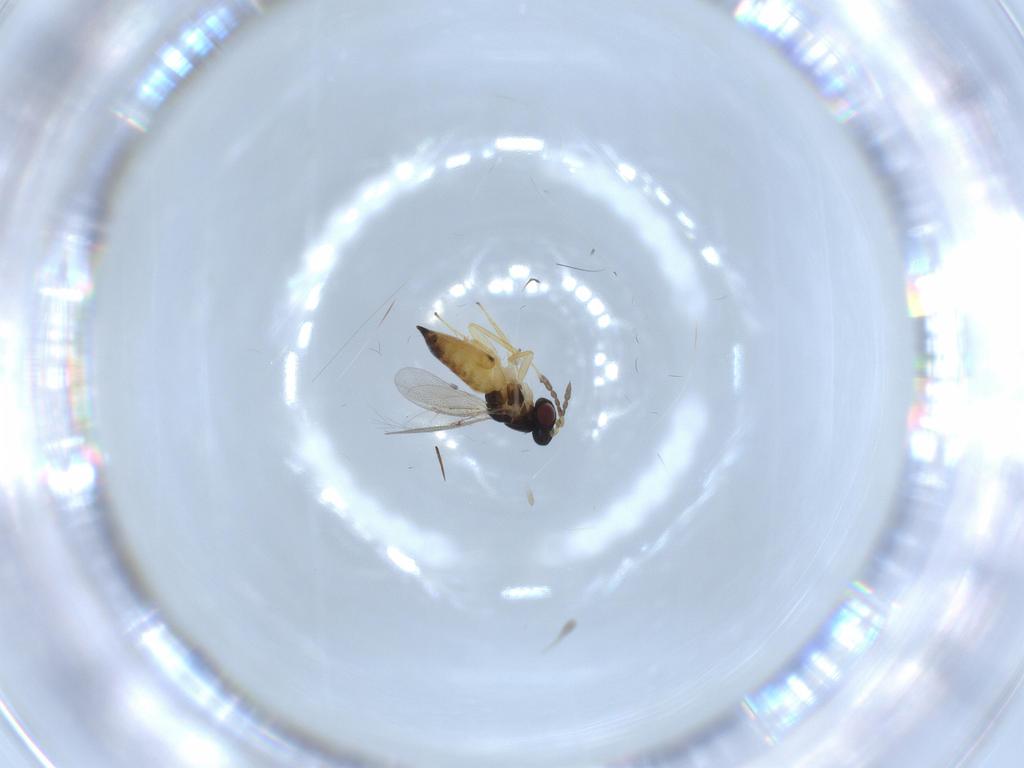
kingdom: Animalia
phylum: Arthropoda
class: Insecta
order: Hymenoptera
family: Eulophidae
